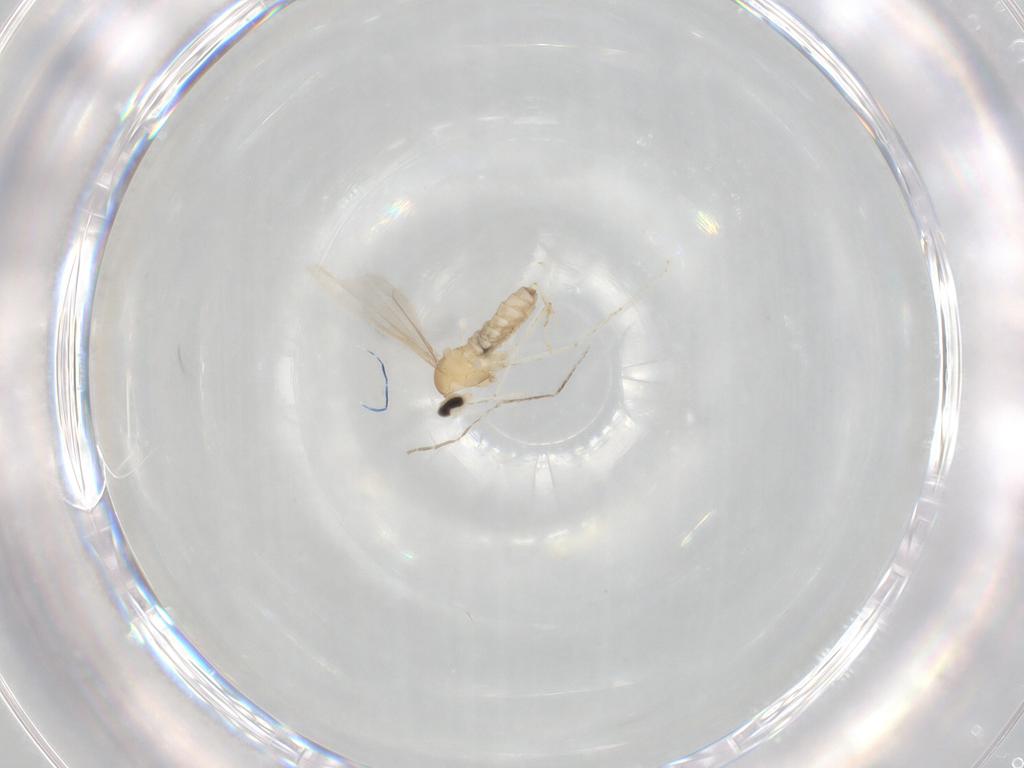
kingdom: Animalia
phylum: Arthropoda
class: Insecta
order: Diptera
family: Cecidomyiidae
